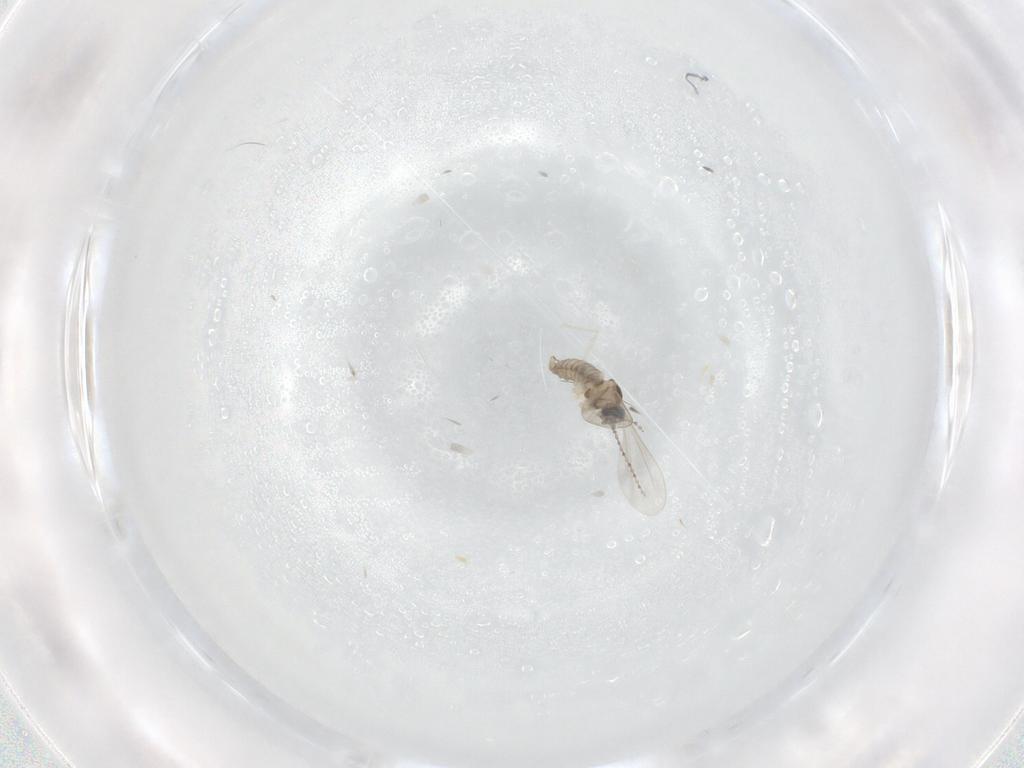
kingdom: Animalia
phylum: Arthropoda
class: Insecta
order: Diptera
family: Cecidomyiidae
